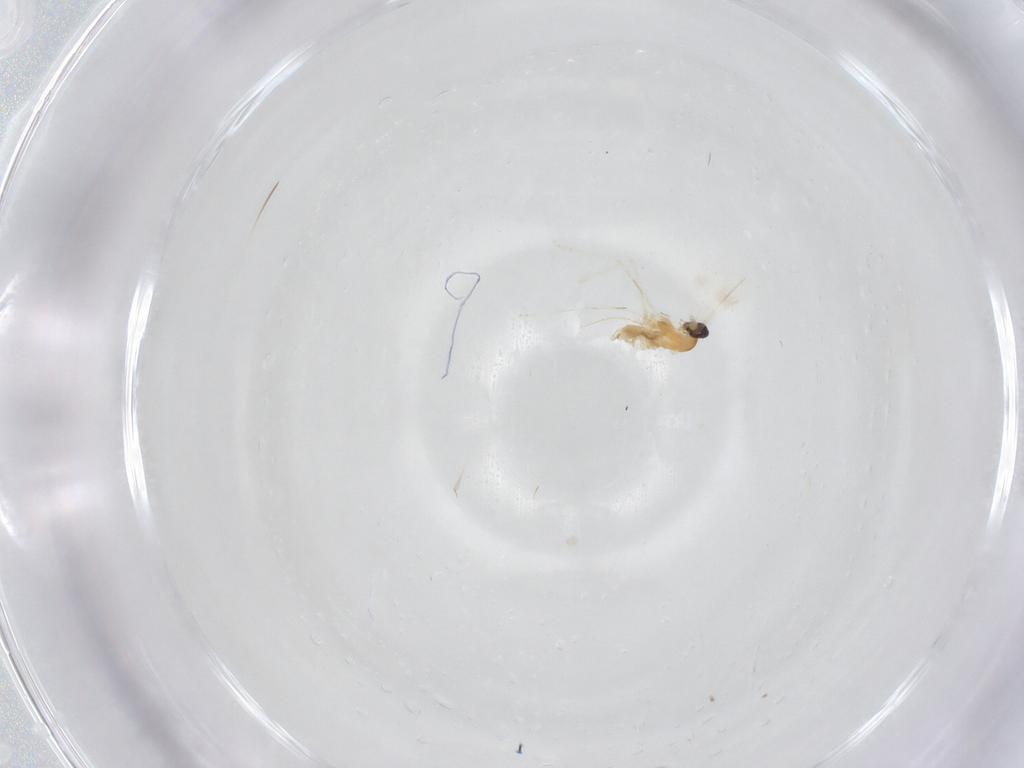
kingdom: Animalia
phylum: Arthropoda
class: Insecta
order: Diptera
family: Cecidomyiidae
